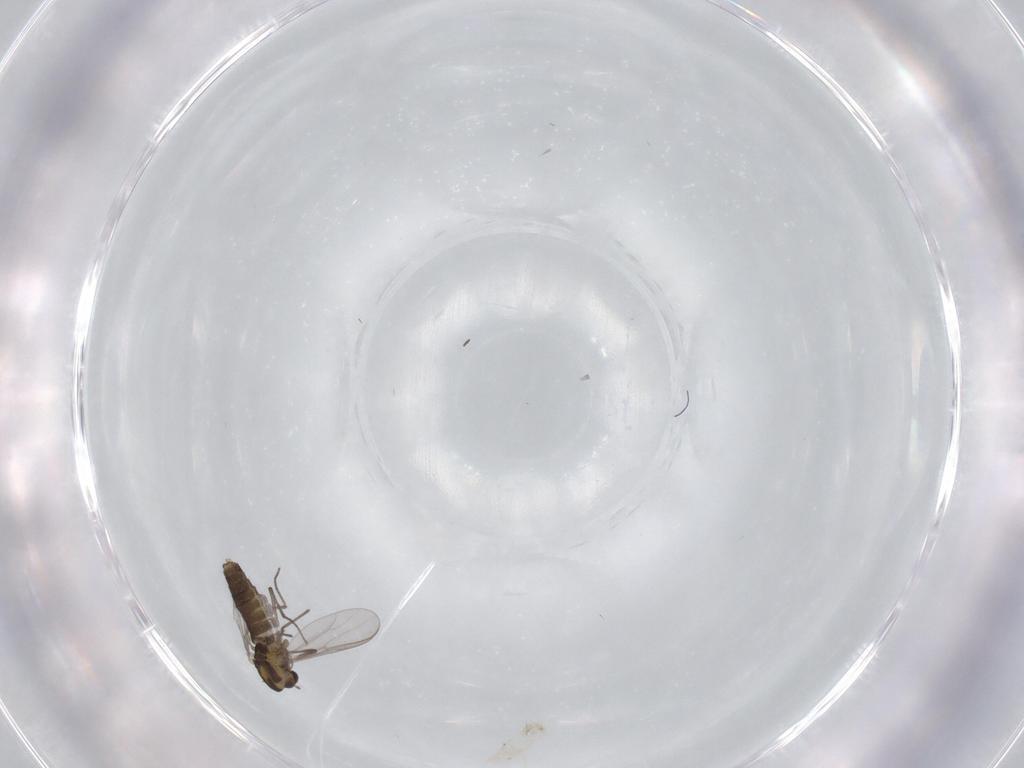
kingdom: Animalia
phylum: Arthropoda
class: Insecta
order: Diptera
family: Chironomidae
